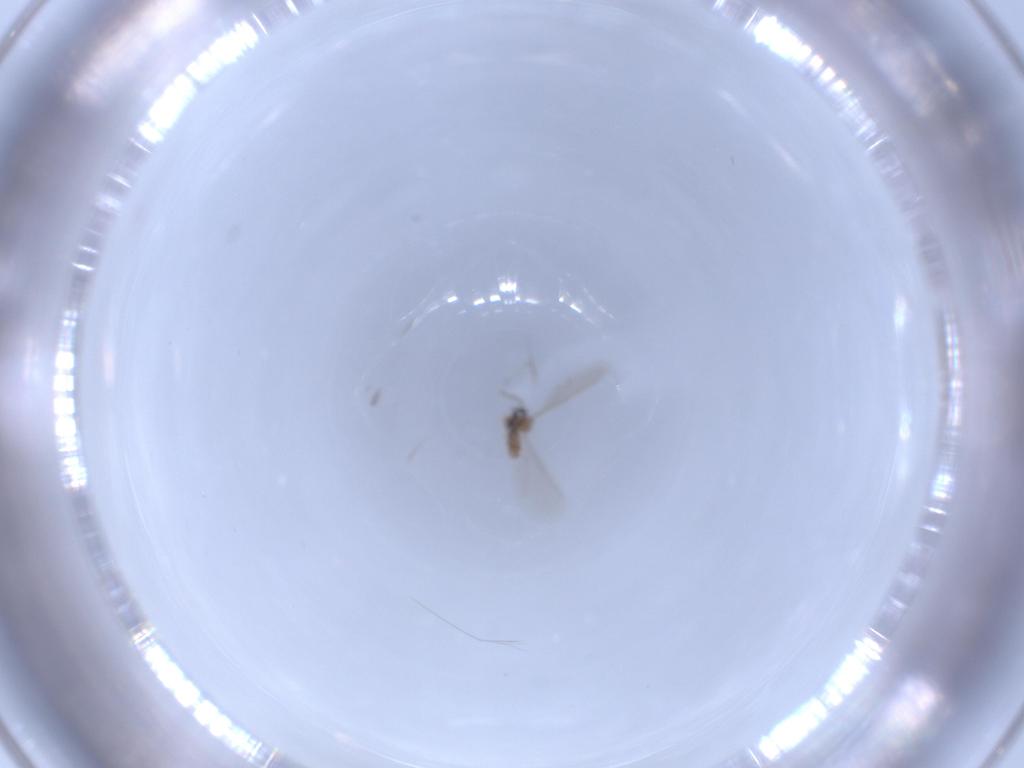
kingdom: Animalia
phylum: Arthropoda
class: Insecta
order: Diptera
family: Cecidomyiidae
